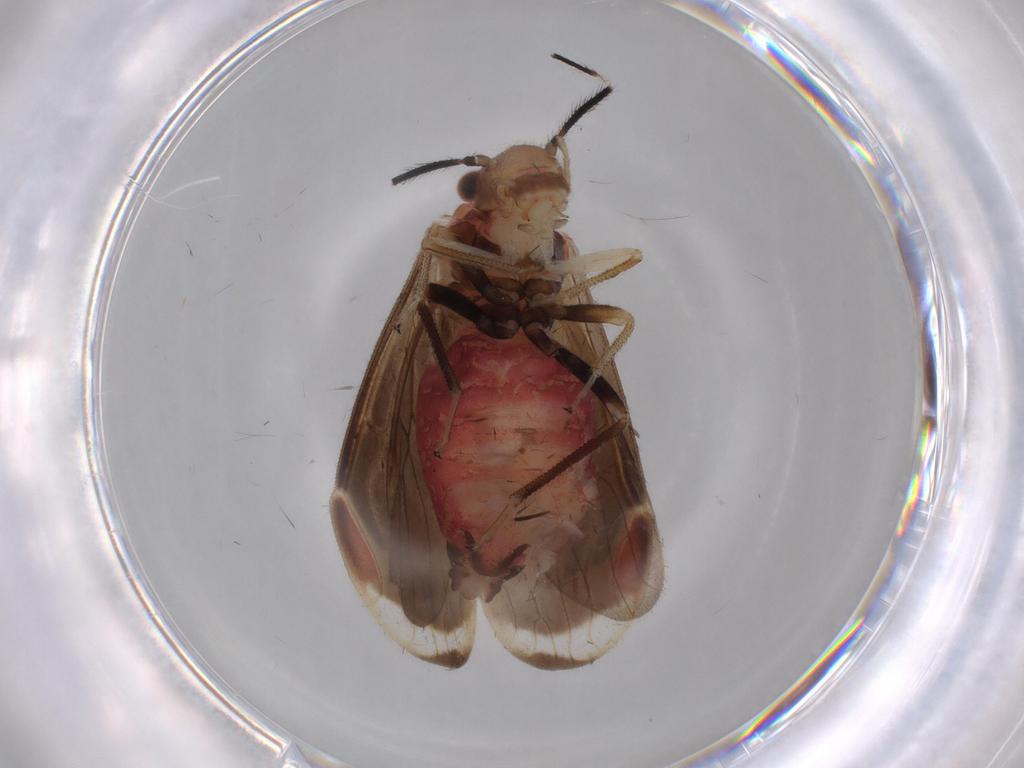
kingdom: Animalia
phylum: Arthropoda
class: Insecta
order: Psocodea
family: Amphipsocidae
